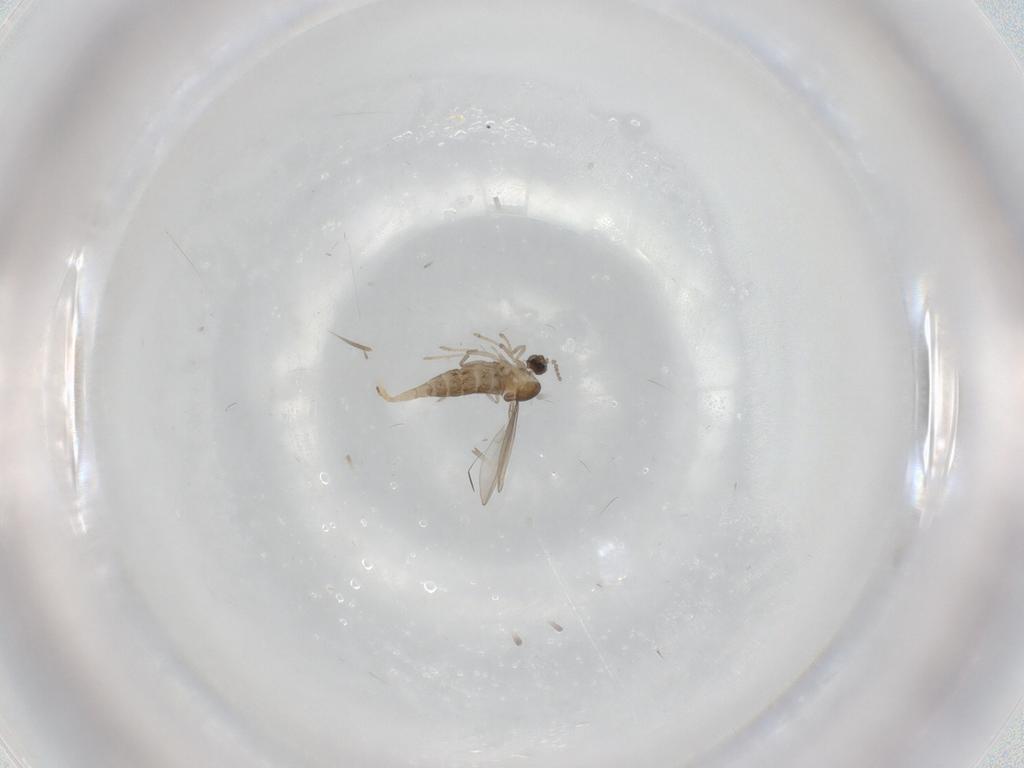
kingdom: Animalia
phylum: Arthropoda
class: Insecta
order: Diptera
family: Cecidomyiidae
